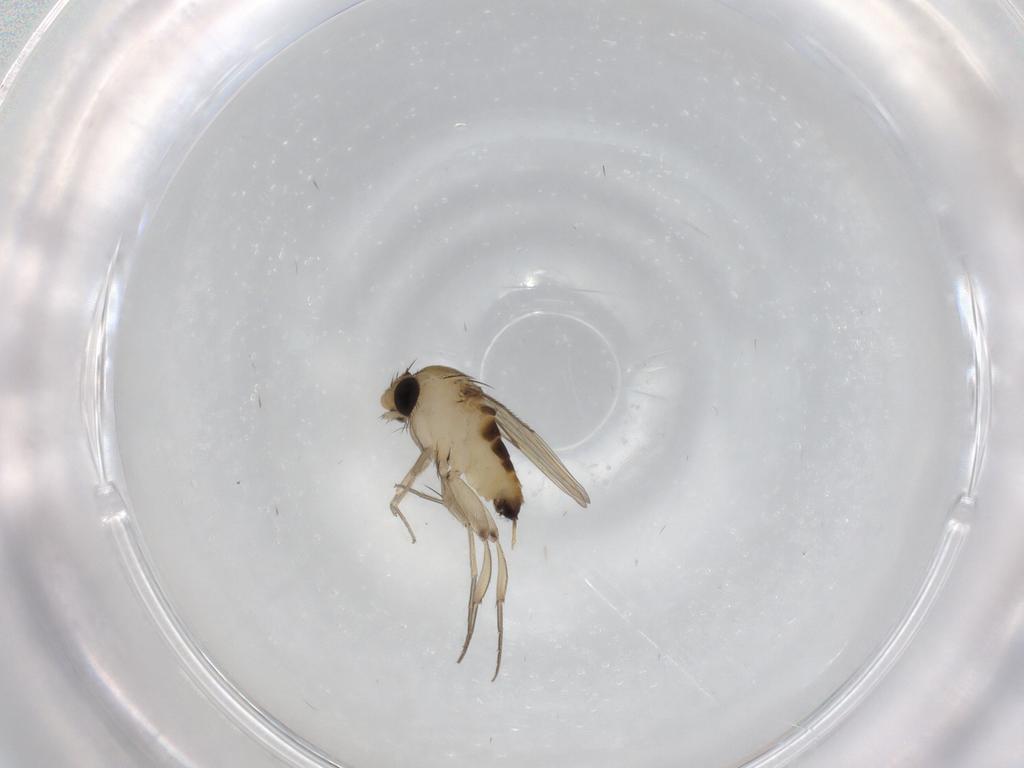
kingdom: Animalia
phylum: Arthropoda
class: Insecta
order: Diptera
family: Phoridae
